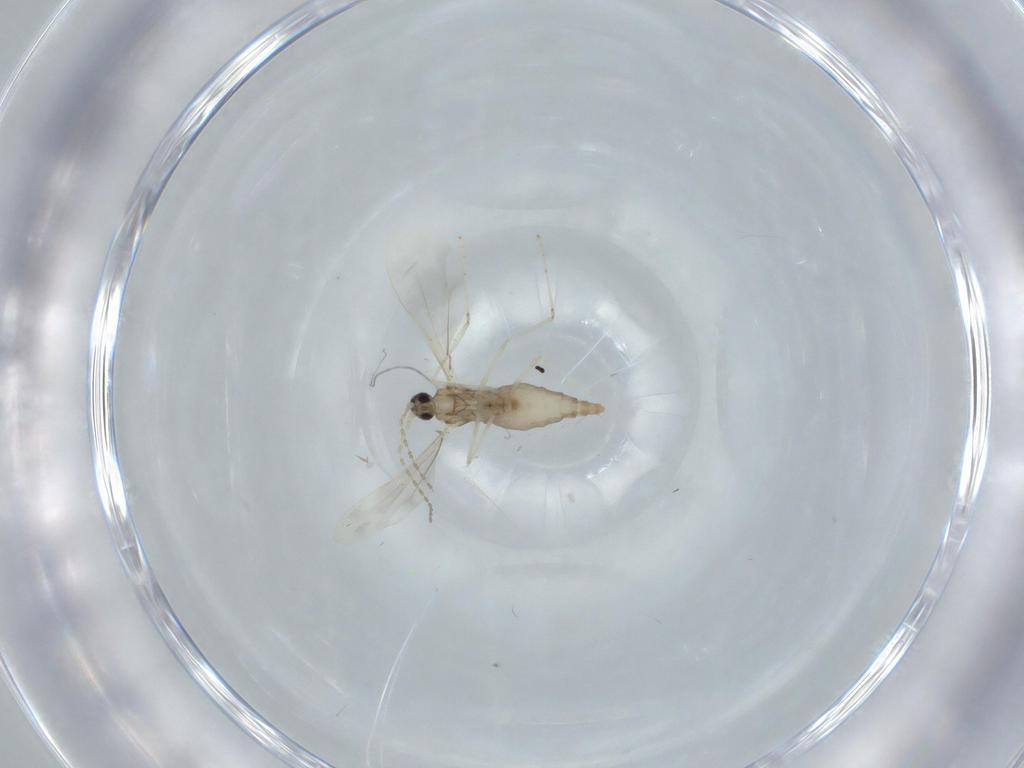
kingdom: Animalia
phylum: Arthropoda
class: Insecta
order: Diptera
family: Cecidomyiidae
